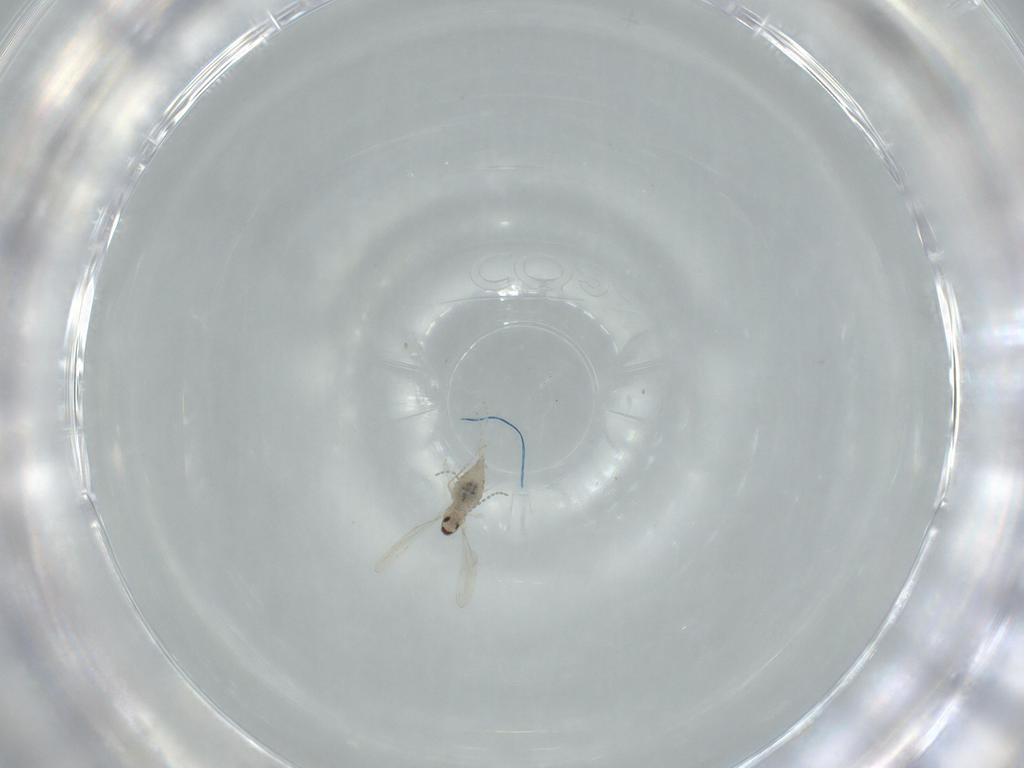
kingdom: Animalia
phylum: Arthropoda
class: Insecta
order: Diptera
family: Cecidomyiidae
